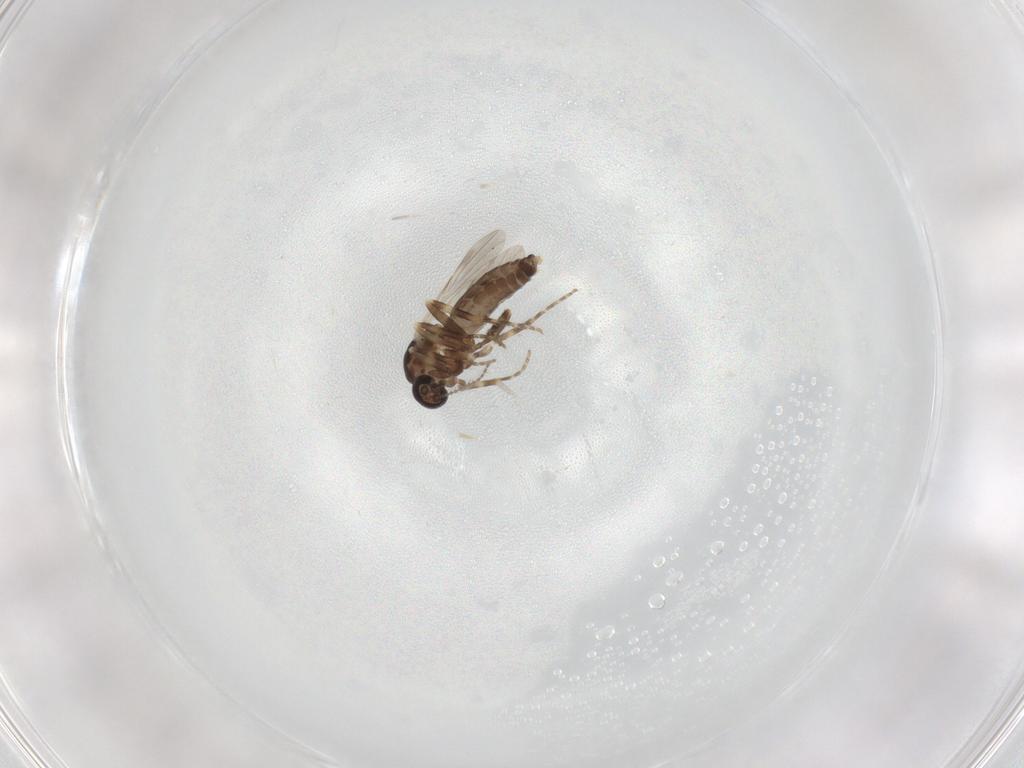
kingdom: Animalia
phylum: Arthropoda
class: Insecta
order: Diptera
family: Ceratopogonidae
